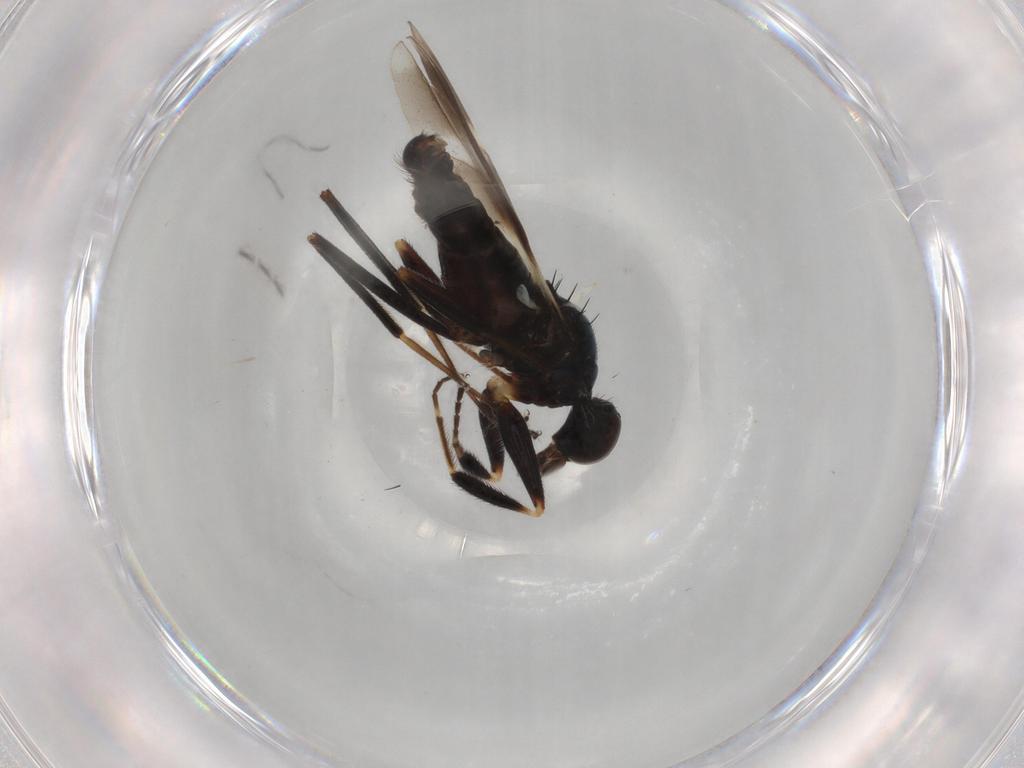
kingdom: Animalia
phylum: Arthropoda
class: Insecta
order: Diptera
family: Hybotidae
